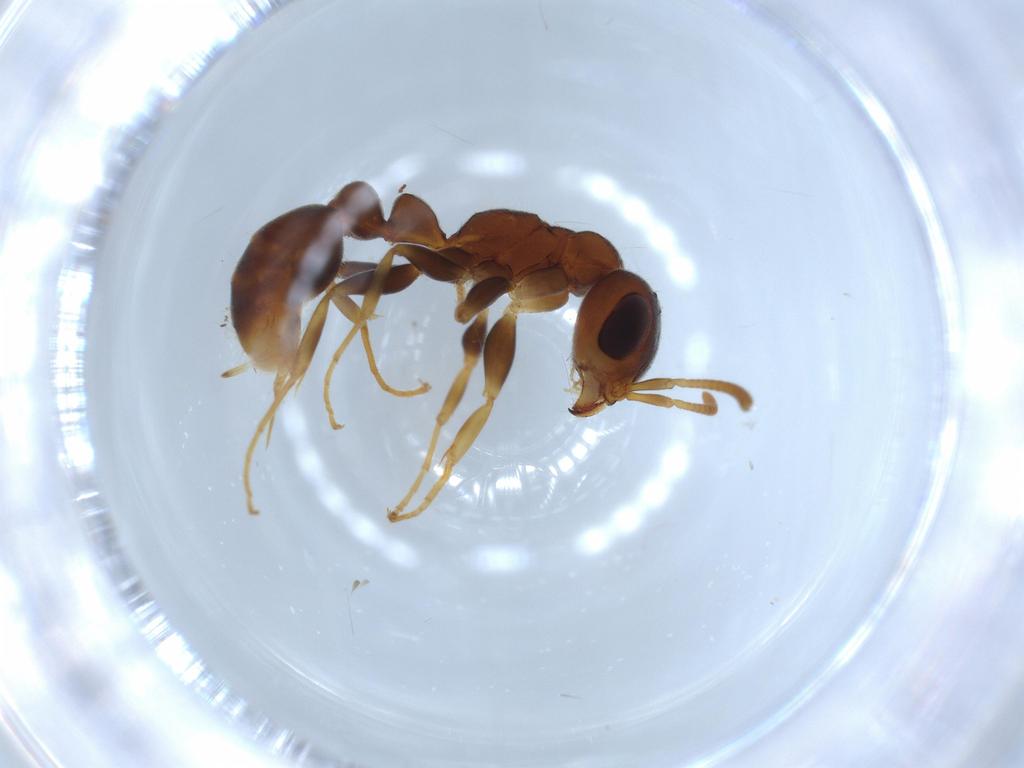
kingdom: Animalia
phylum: Arthropoda
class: Insecta
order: Hymenoptera
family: Formicidae
